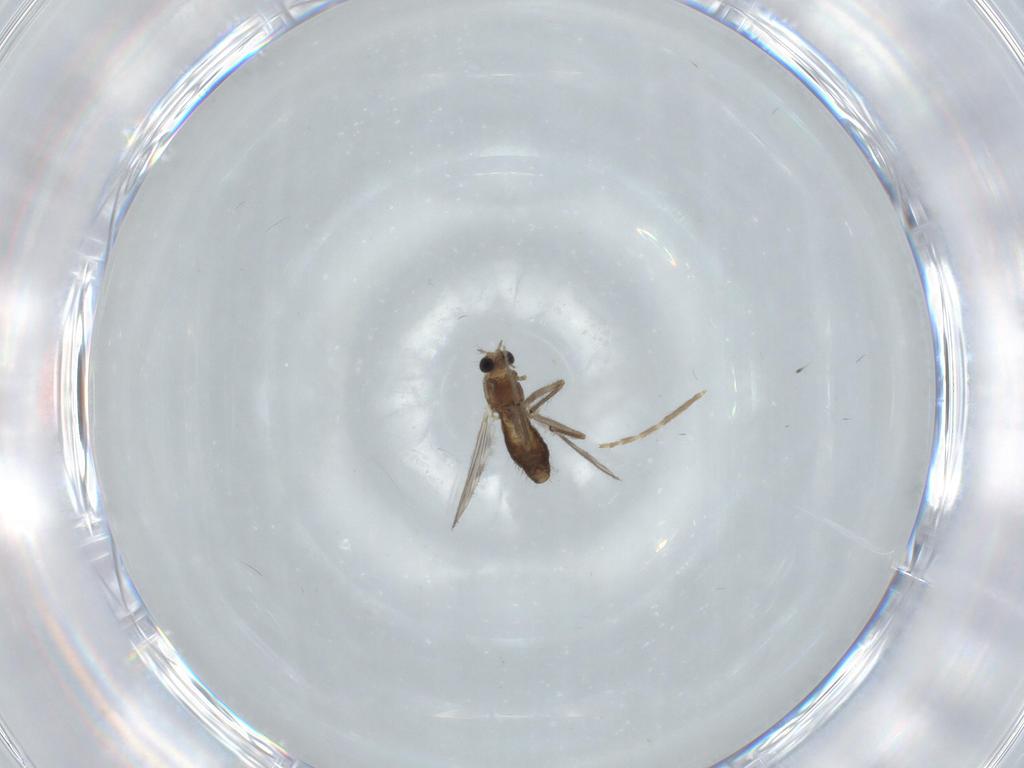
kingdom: Animalia
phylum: Arthropoda
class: Insecta
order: Diptera
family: Chironomidae
